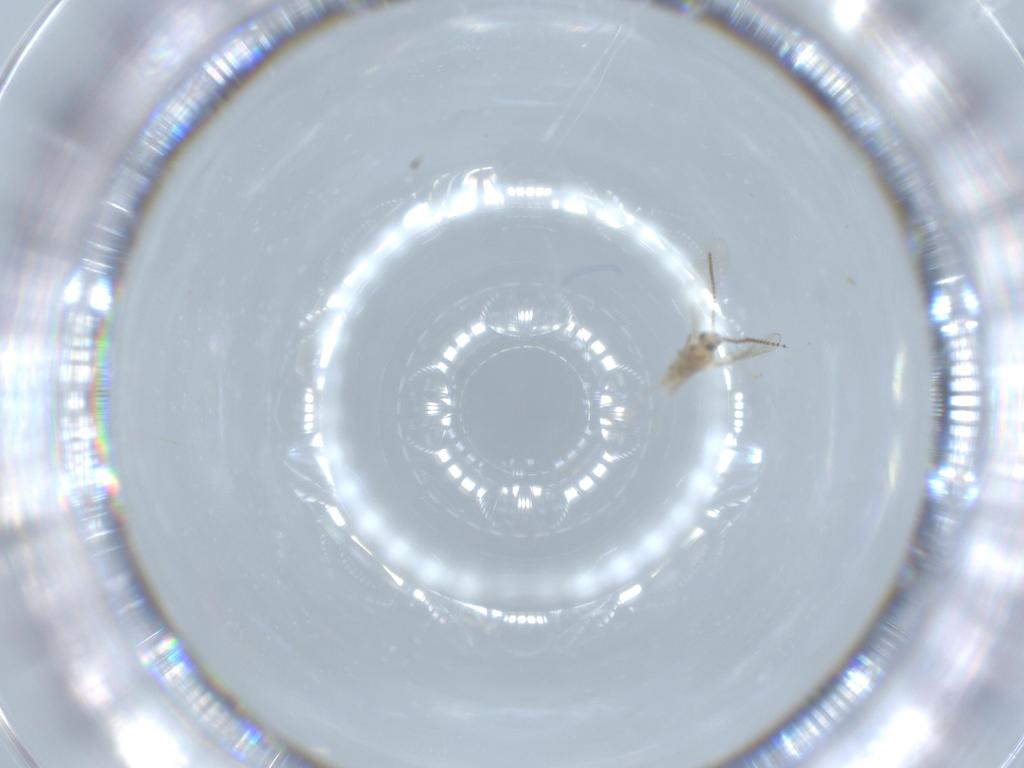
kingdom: Animalia
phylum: Arthropoda
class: Insecta
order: Diptera
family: Cecidomyiidae
